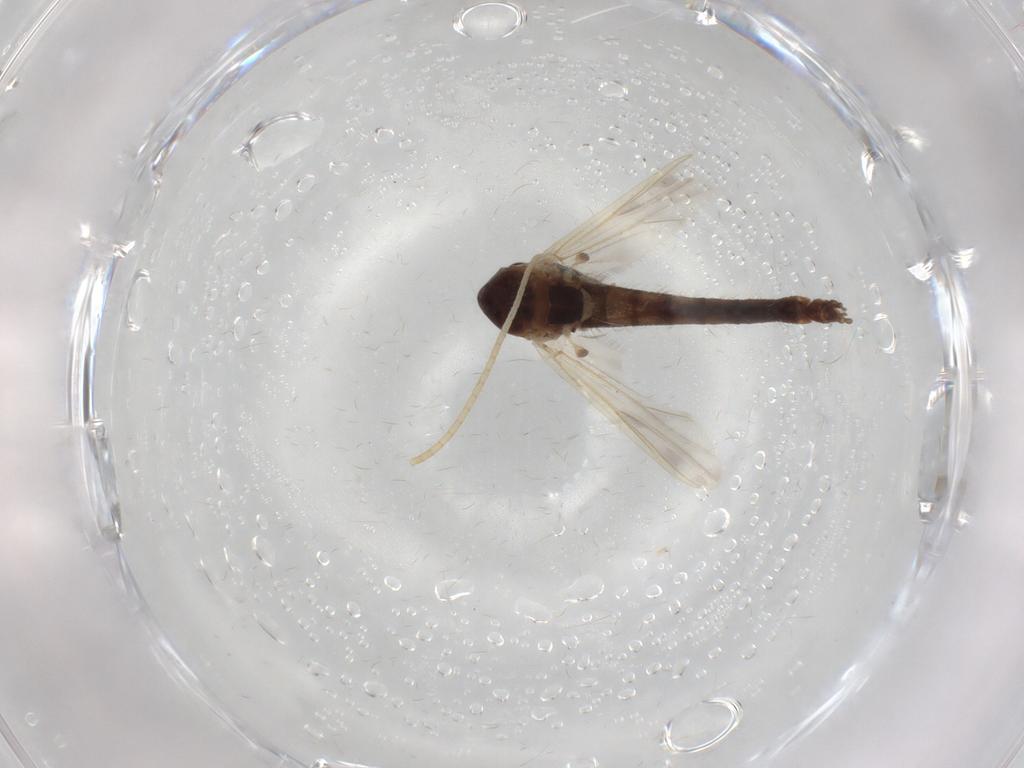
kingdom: Animalia
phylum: Arthropoda
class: Insecta
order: Diptera
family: Chironomidae
